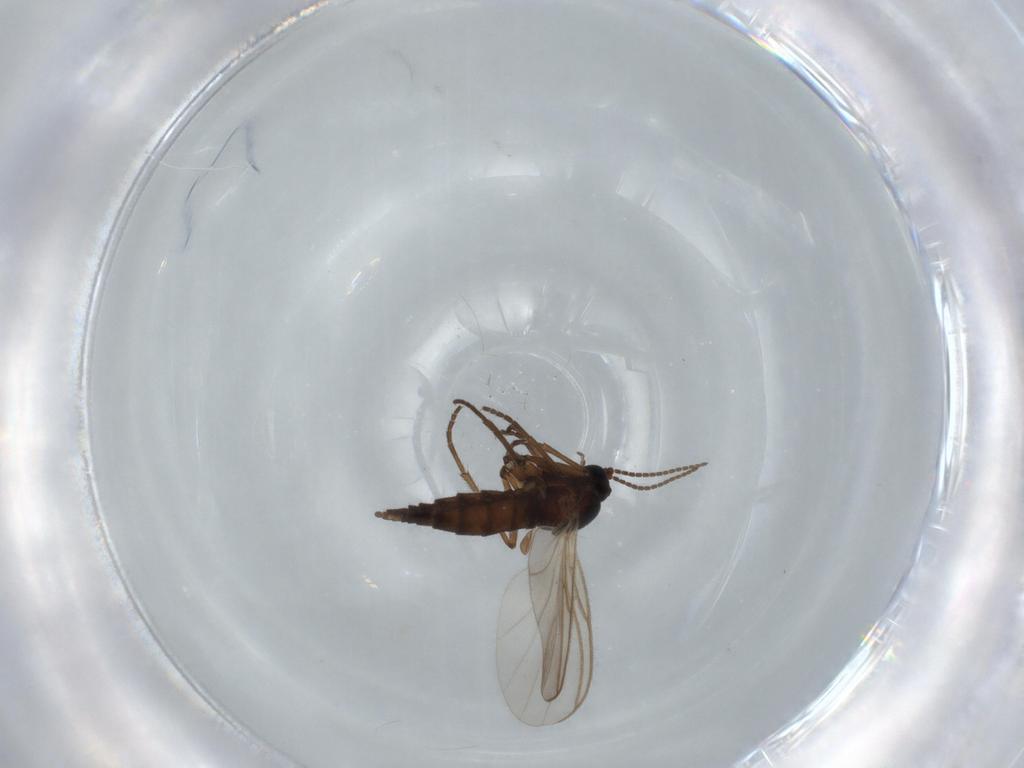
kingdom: Animalia
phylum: Arthropoda
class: Insecta
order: Diptera
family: Sciaridae
